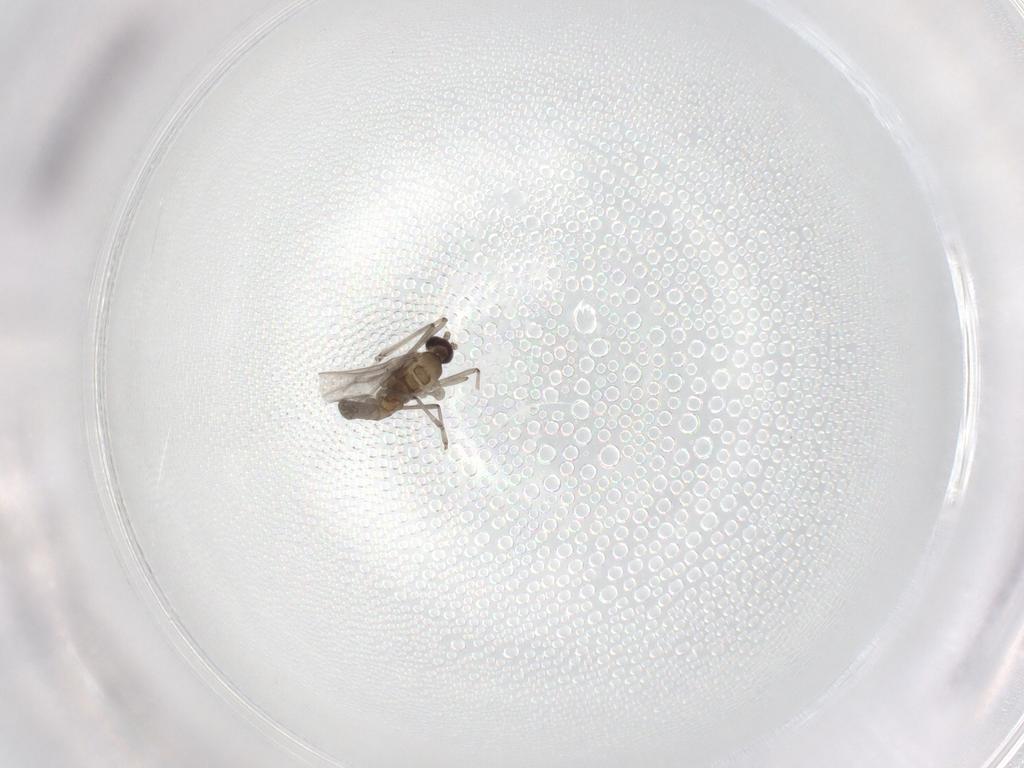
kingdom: Animalia
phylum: Arthropoda
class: Insecta
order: Diptera
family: Cecidomyiidae
